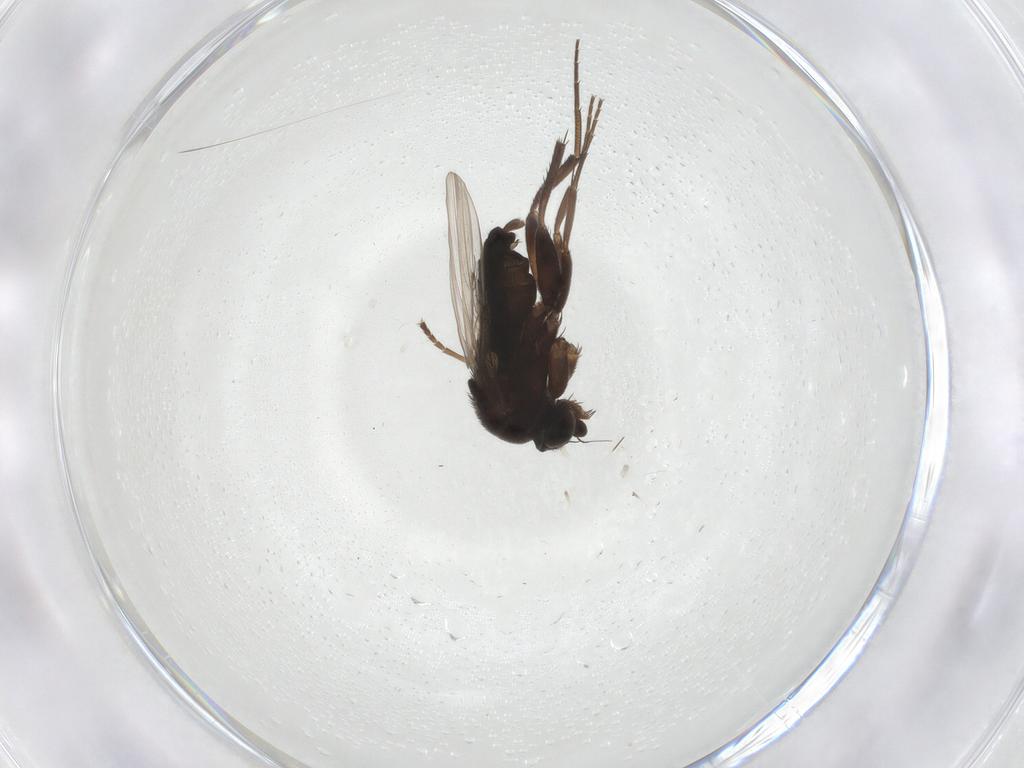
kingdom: Animalia
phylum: Arthropoda
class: Insecta
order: Diptera
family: Phoridae
